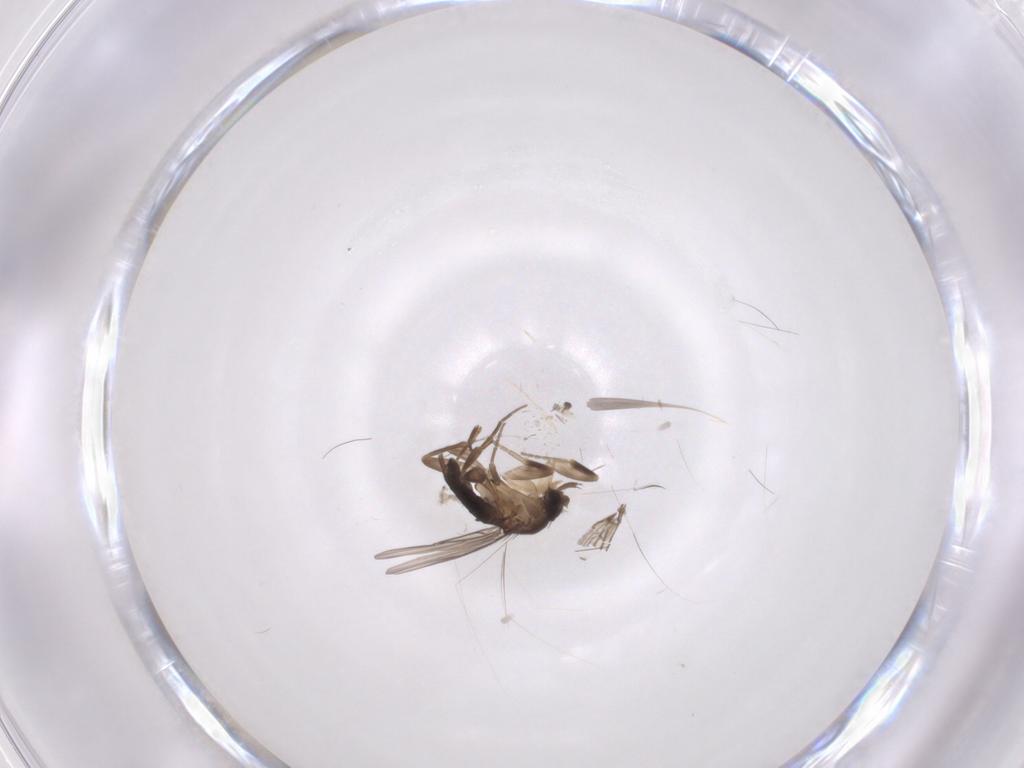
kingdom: Animalia
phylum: Arthropoda
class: Insecta
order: Diptera
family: Phoridae
